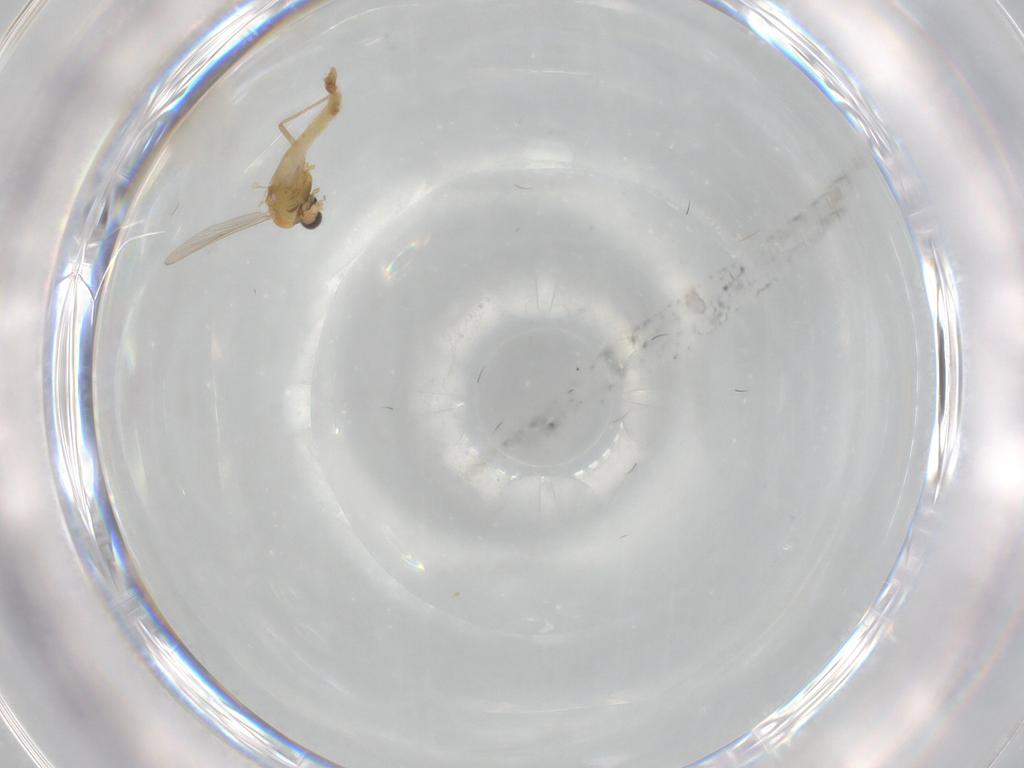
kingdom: Animalia
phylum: Arthropoda
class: Insecta
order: Diptera
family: Chironomidae
